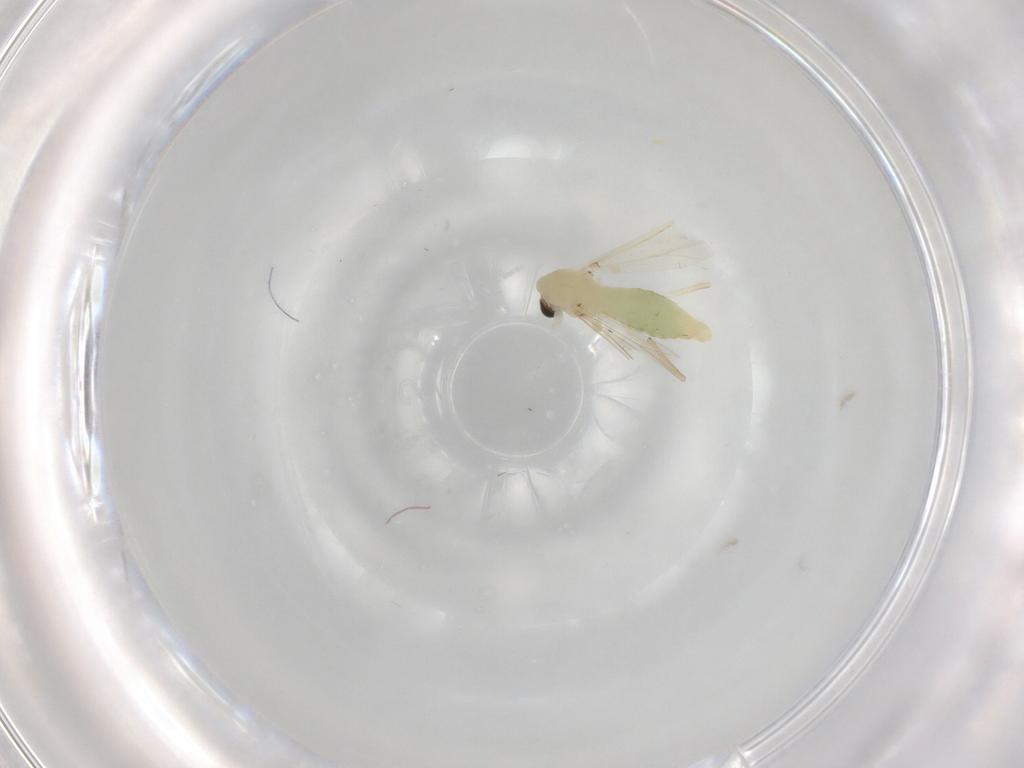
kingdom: Animalia
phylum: Arthropoda
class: Insecta
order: Diptera
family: Chironomidae
